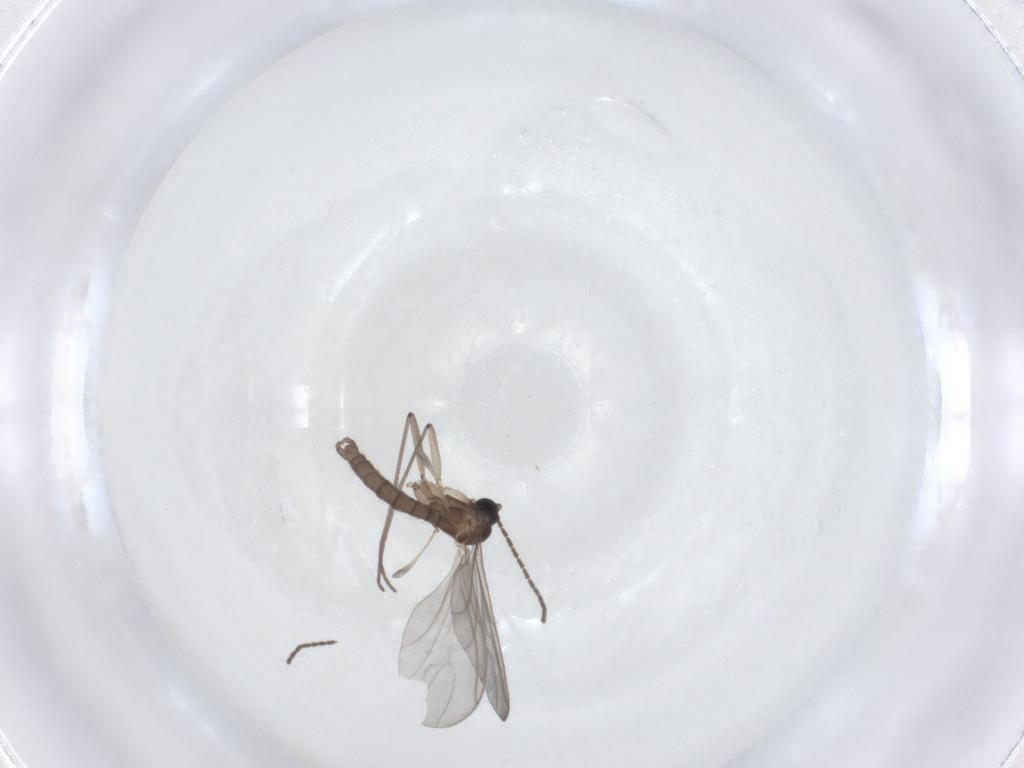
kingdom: Animalia
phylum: Arthropoda
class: Insecta
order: Diptera
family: Sciaridae
